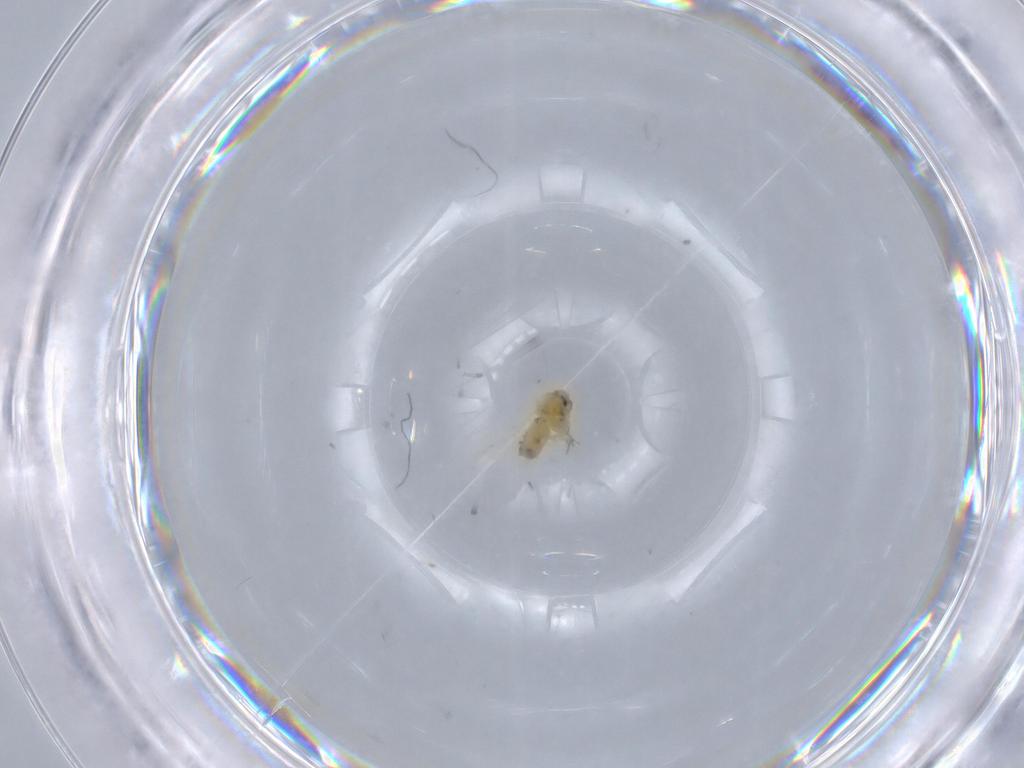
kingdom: Animalia
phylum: Arthropoda
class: Insecta
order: Hemiptera
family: Aleyrodidae
